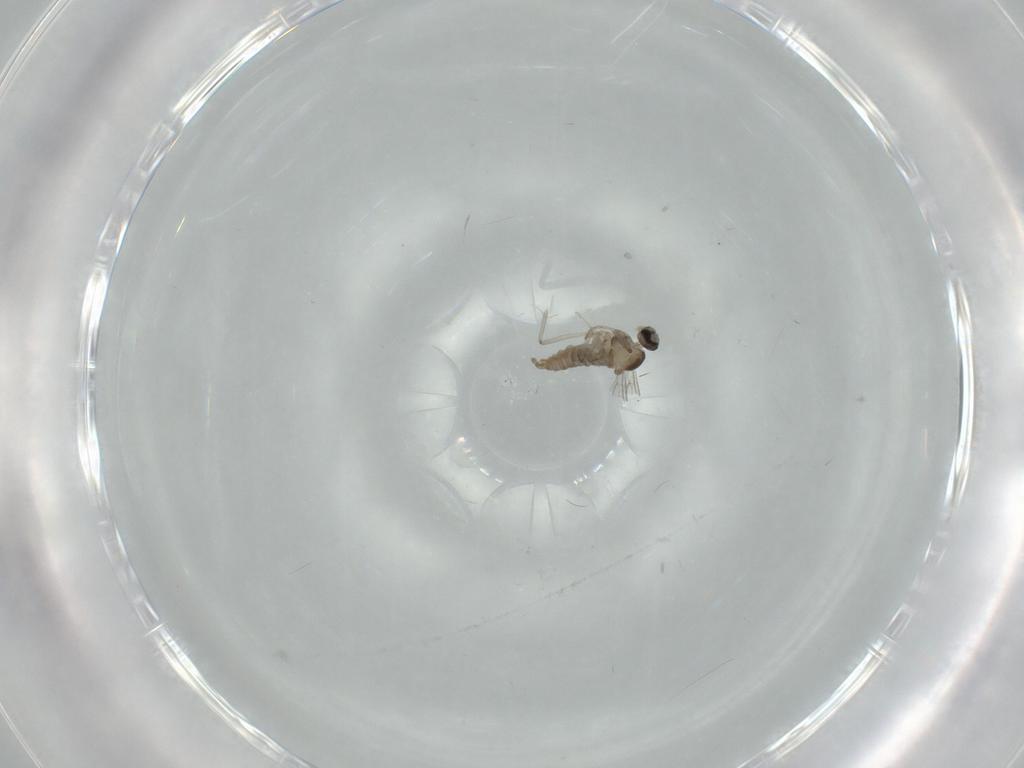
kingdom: Animalia
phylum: Arthropoda
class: Insecta
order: Diptera
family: Cecidomyiidae
